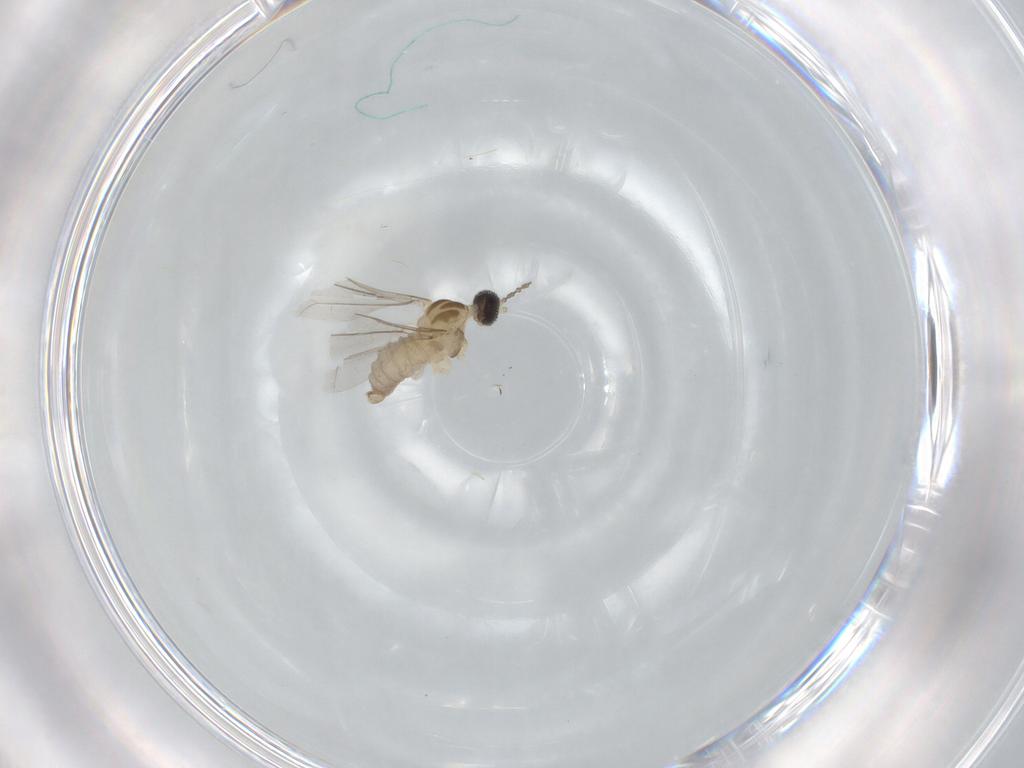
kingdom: Animalia
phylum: Arthropoda
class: Insecta
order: Diptera
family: Cecidomyiidae
